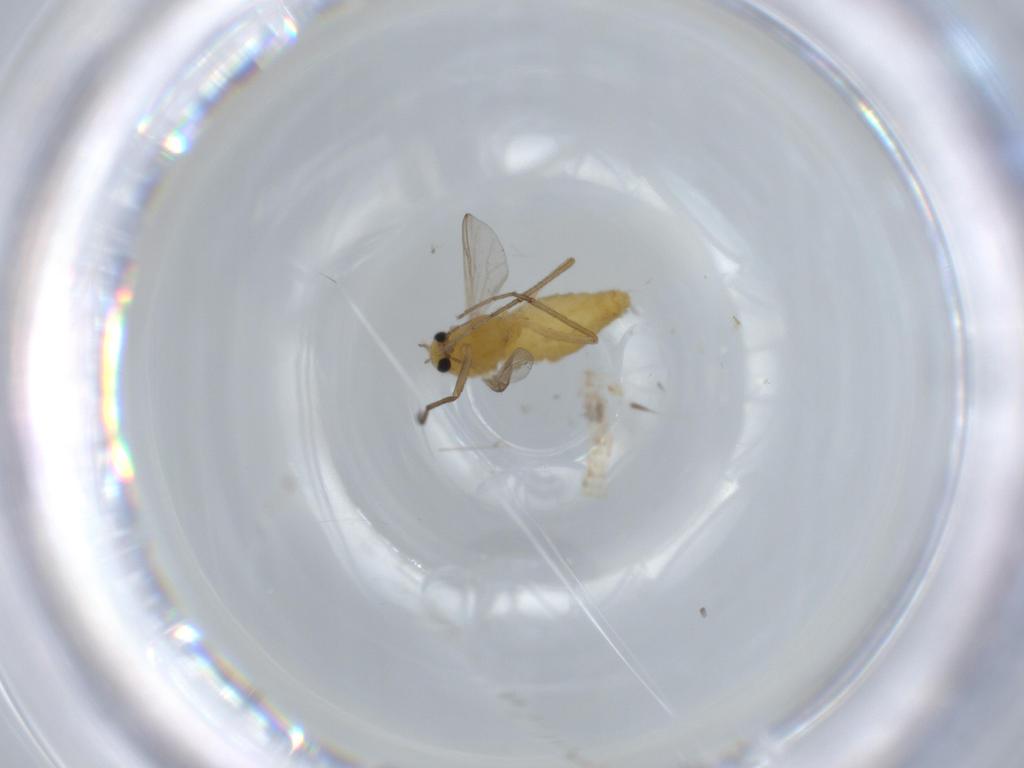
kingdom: Animalia
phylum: Arthropoda
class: Insecta
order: Diptera
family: Chironomidae
